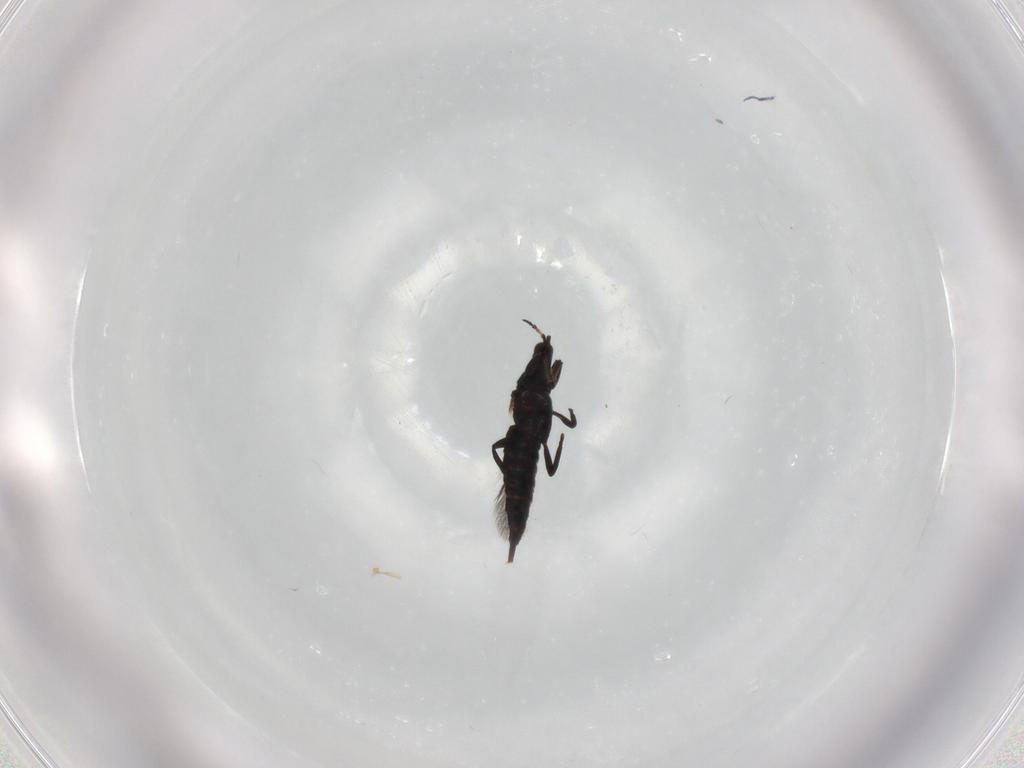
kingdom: Animalia
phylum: Arthropoda
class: Insecta
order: Thysanoptera
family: Phlaeothripidae
